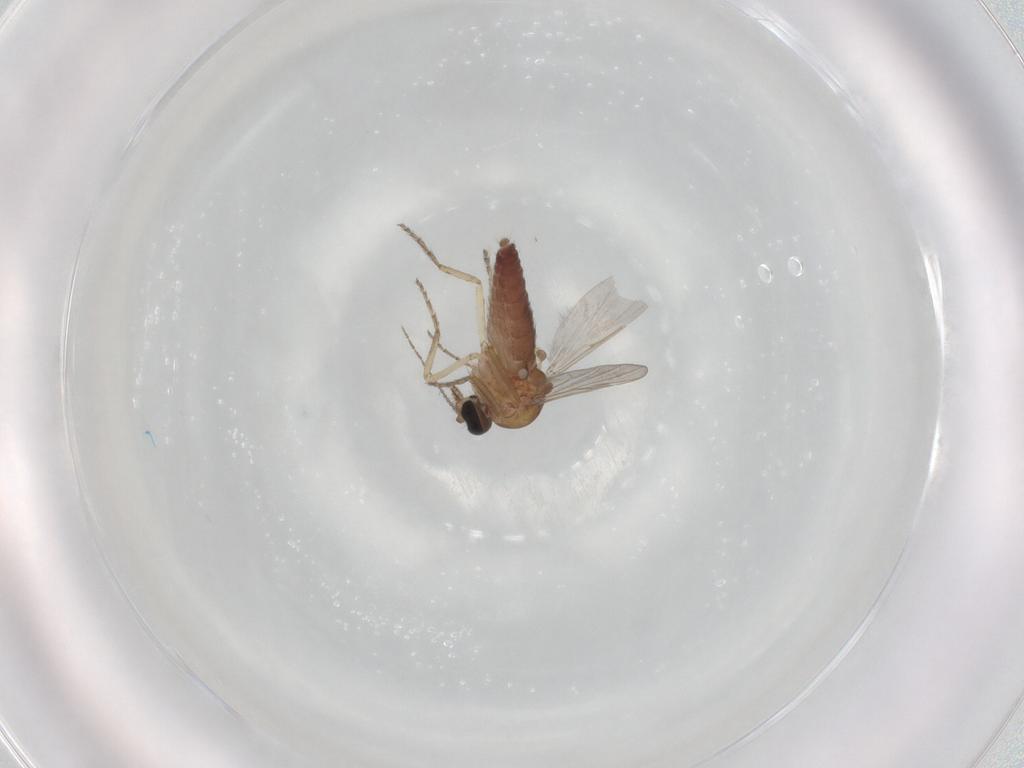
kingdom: Animalia
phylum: Arthropoda
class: Insecta
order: Diptera
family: Ceratopogonidae
